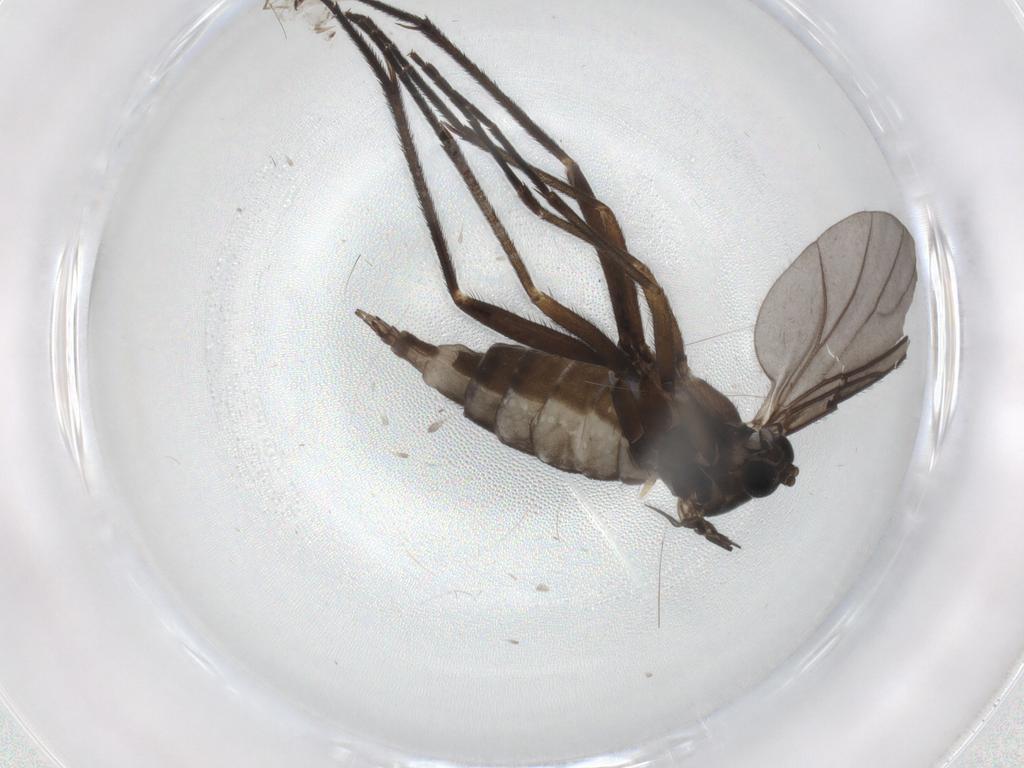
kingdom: Animalia
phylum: Arthropoda
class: Insecta
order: Diptera
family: Sciaridae
